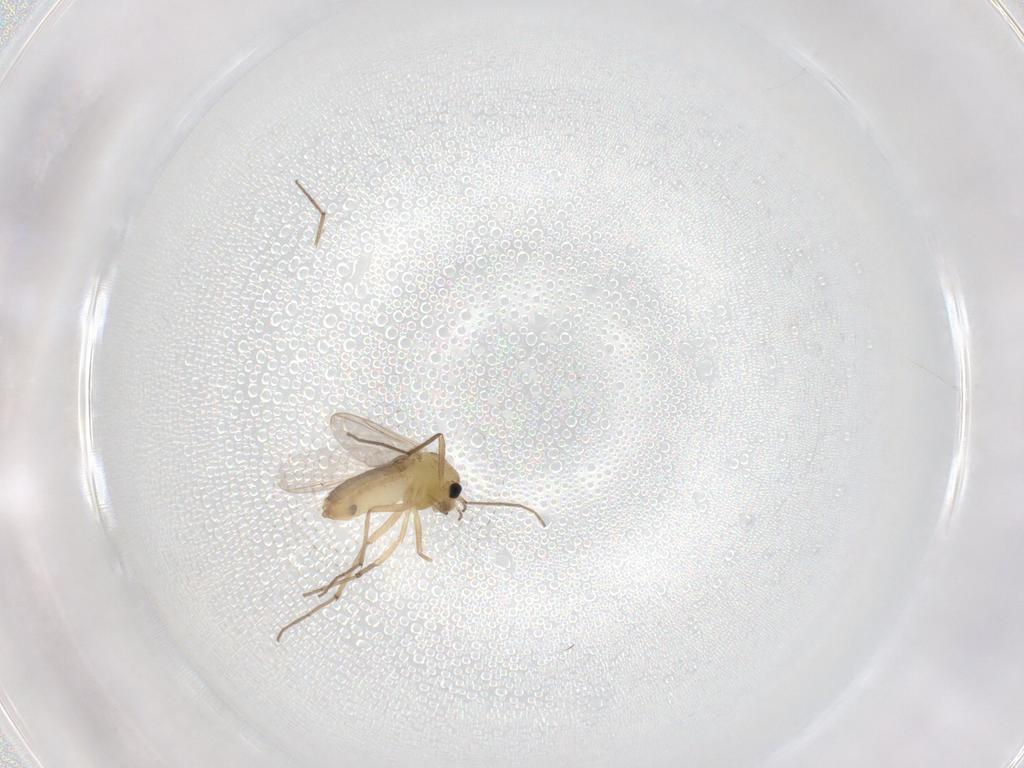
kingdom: Animalia
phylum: Arthropoda
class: Insecta
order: Diptera
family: Chironomidae
